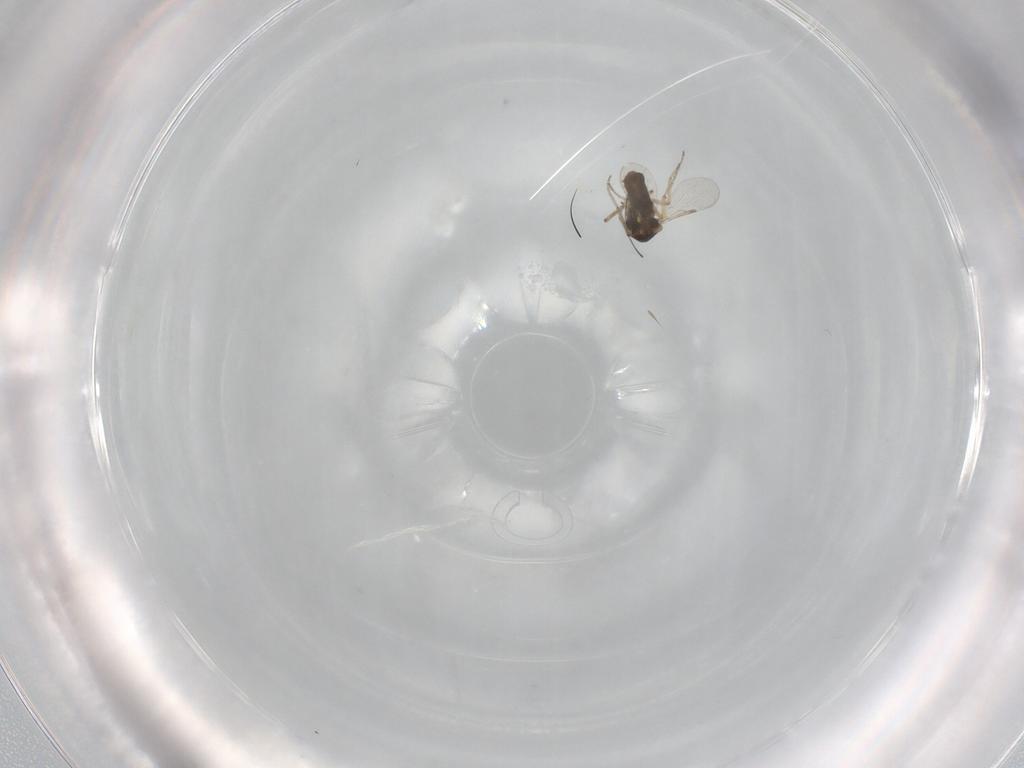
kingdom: Animalia
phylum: Arthropoda
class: Insecta
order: Diptera
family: Ceratopogonidae
